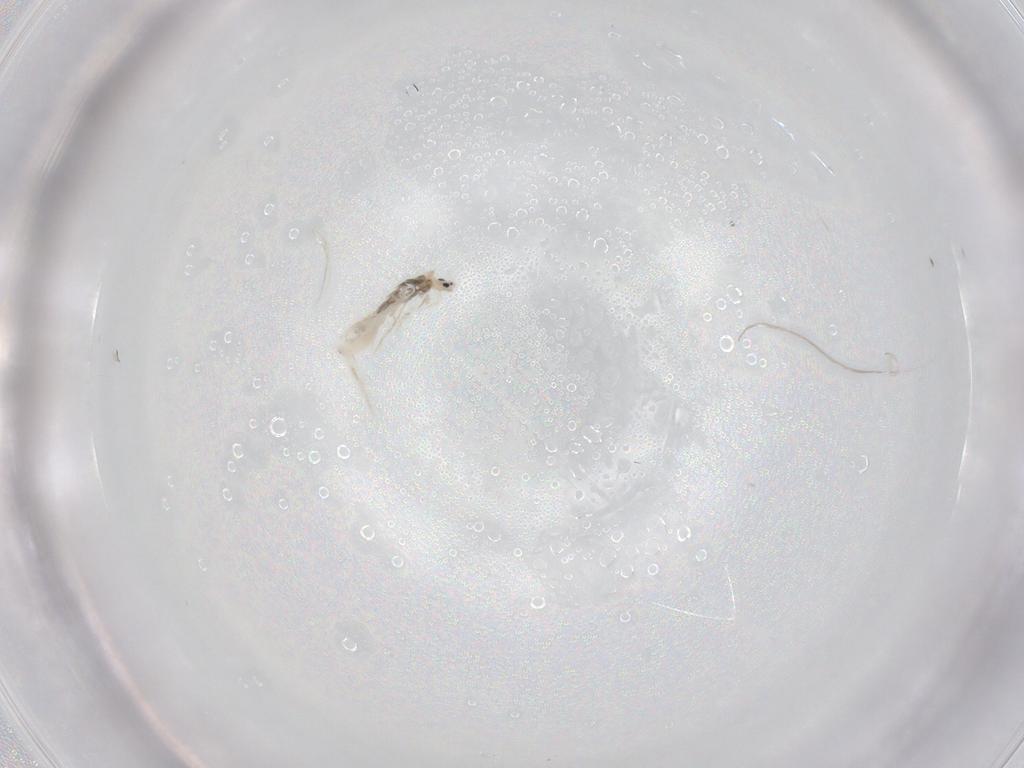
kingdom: Animalia
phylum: Arthropoda
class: Collembola
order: Entomobryomorpha
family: Entomobryidae
